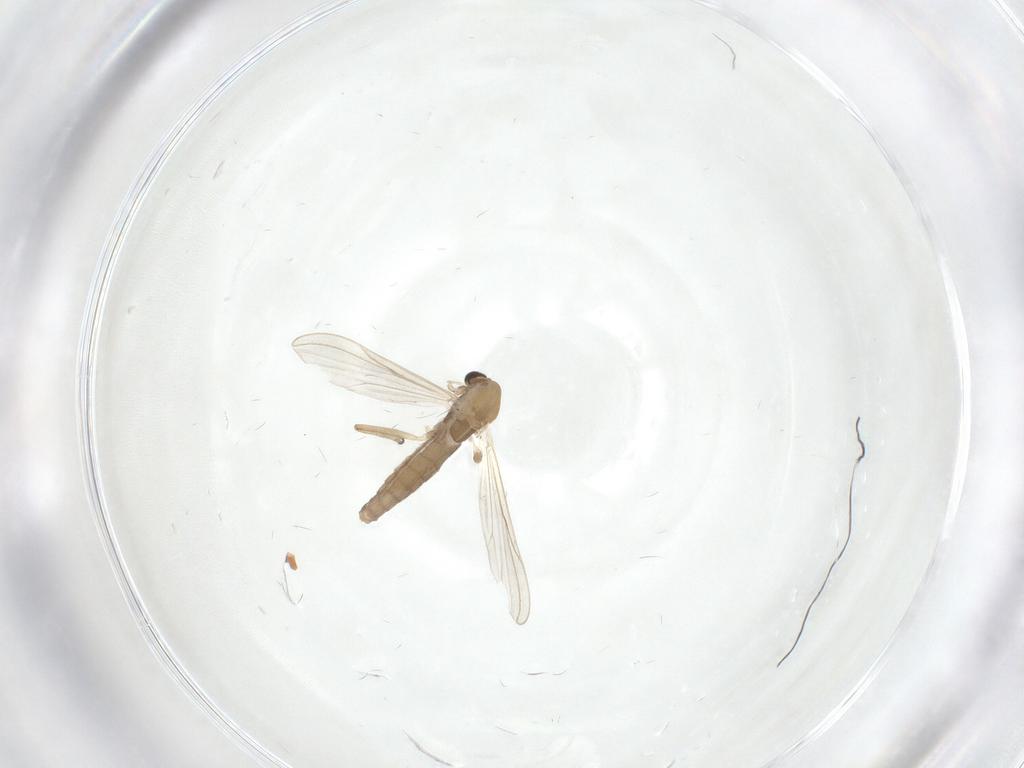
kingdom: Animalia
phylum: Arthropoda
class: Insecta
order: Diptera
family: Chironomidae
